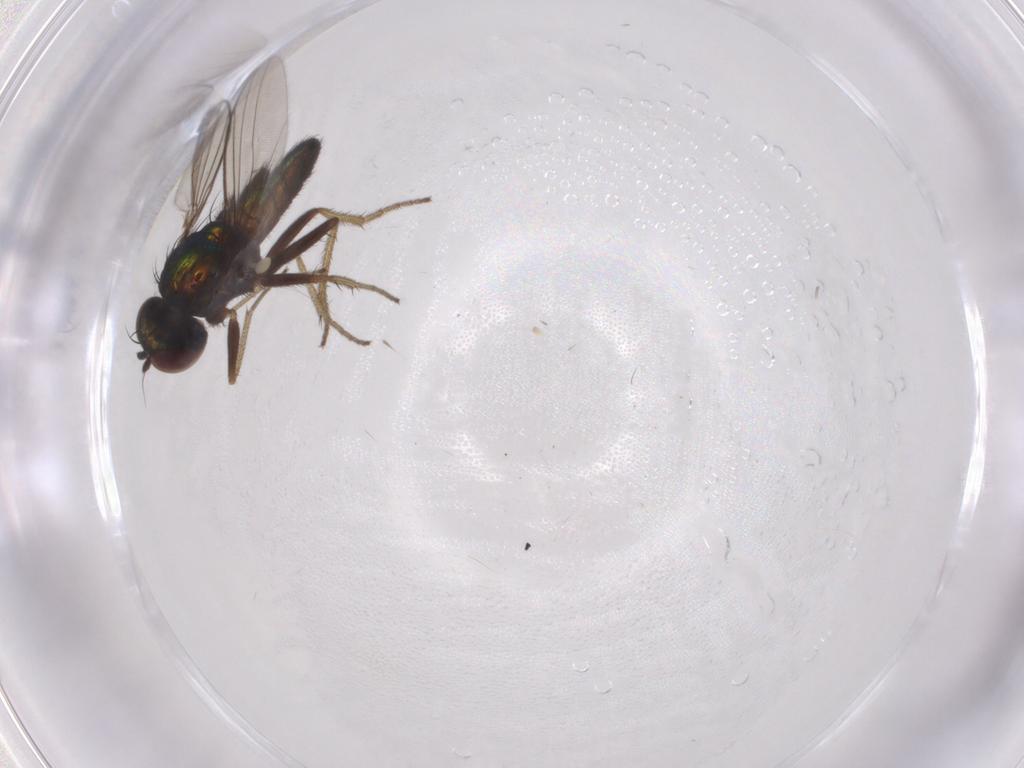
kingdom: Animalia
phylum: Arthropoda
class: Insecta
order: Diptera
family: Dolichopodidae
